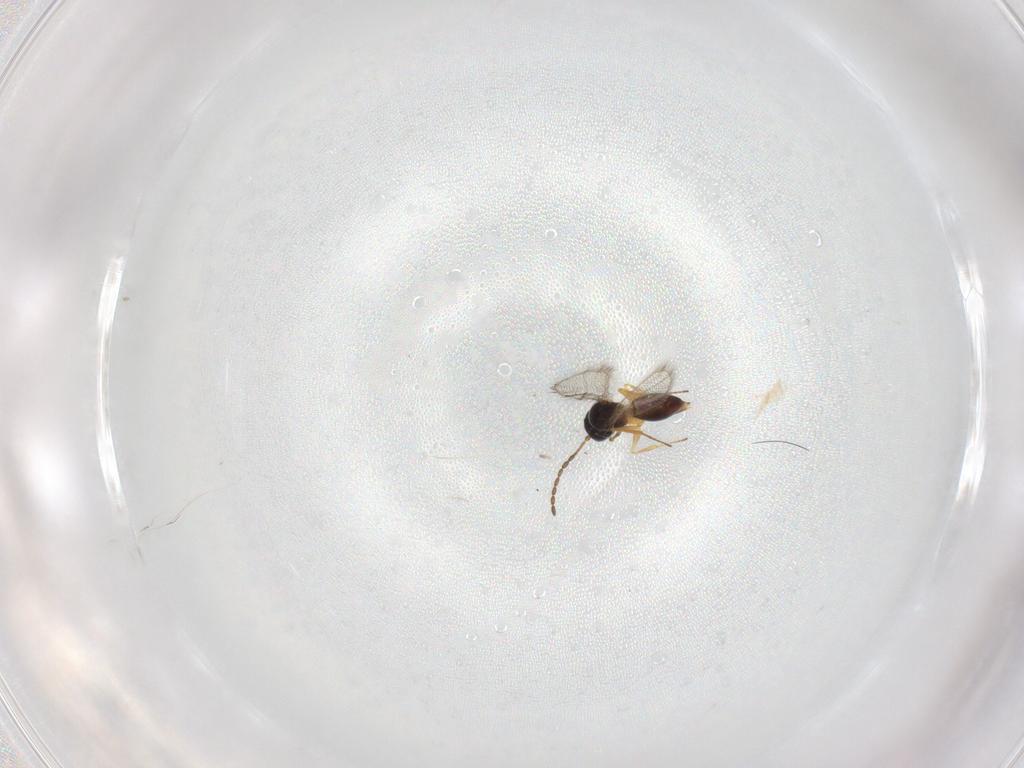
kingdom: Animalia
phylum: Arthropoda
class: Insecta
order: Hymenoptera
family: Figitidae
